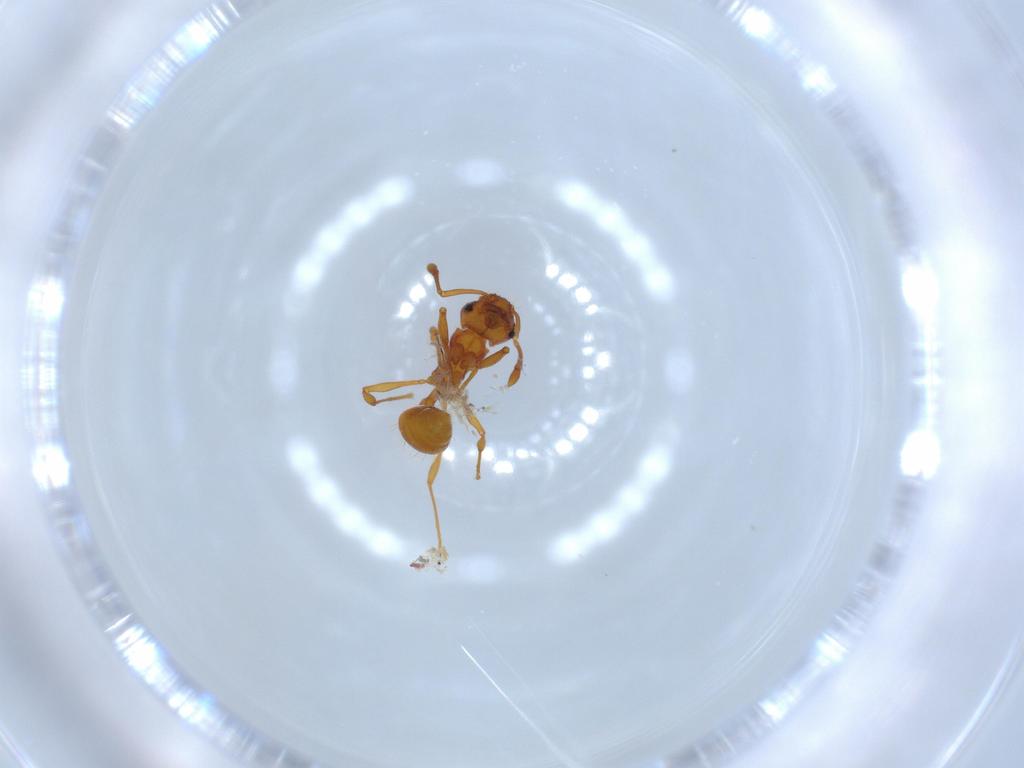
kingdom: Animalia
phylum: Arthropoda
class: Insecta
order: Hymenoptera
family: Formicidae
